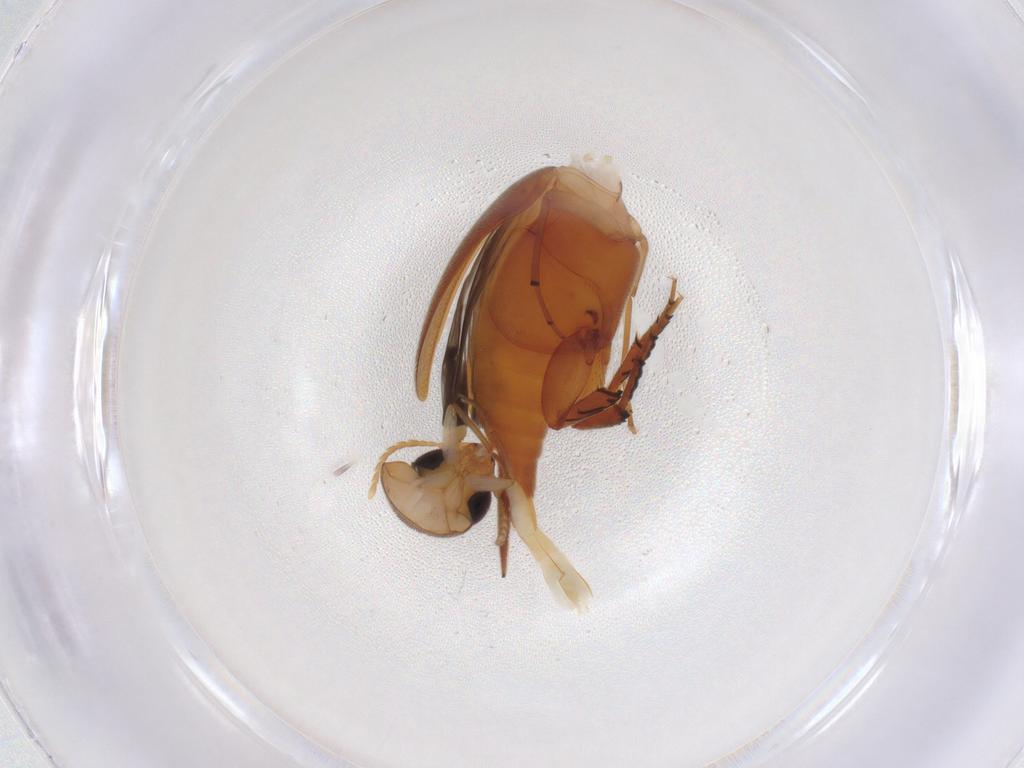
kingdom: Animalia
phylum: Arthropoda
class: Insecta
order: Coleoptera
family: Mordellidae
